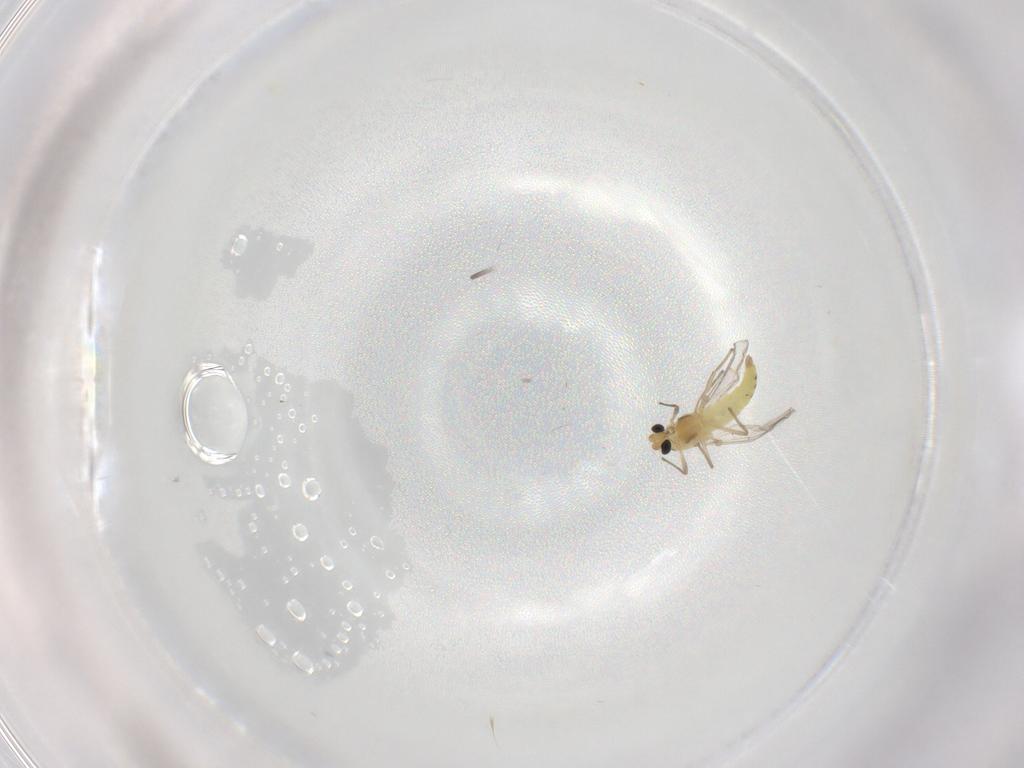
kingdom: Animalia
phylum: Arthropoda
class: Insecta
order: Diptera
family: Chironomidae
